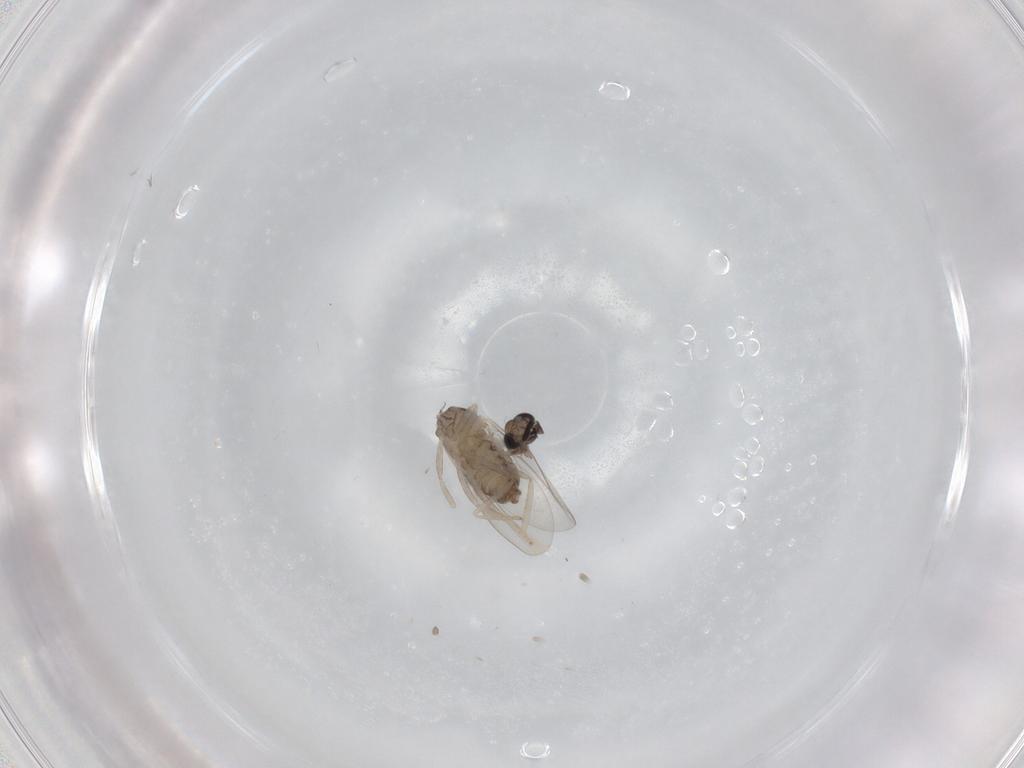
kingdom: Animalia
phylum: Arthropoda
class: Insecta
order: Diptera
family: Cecidomyiidae
